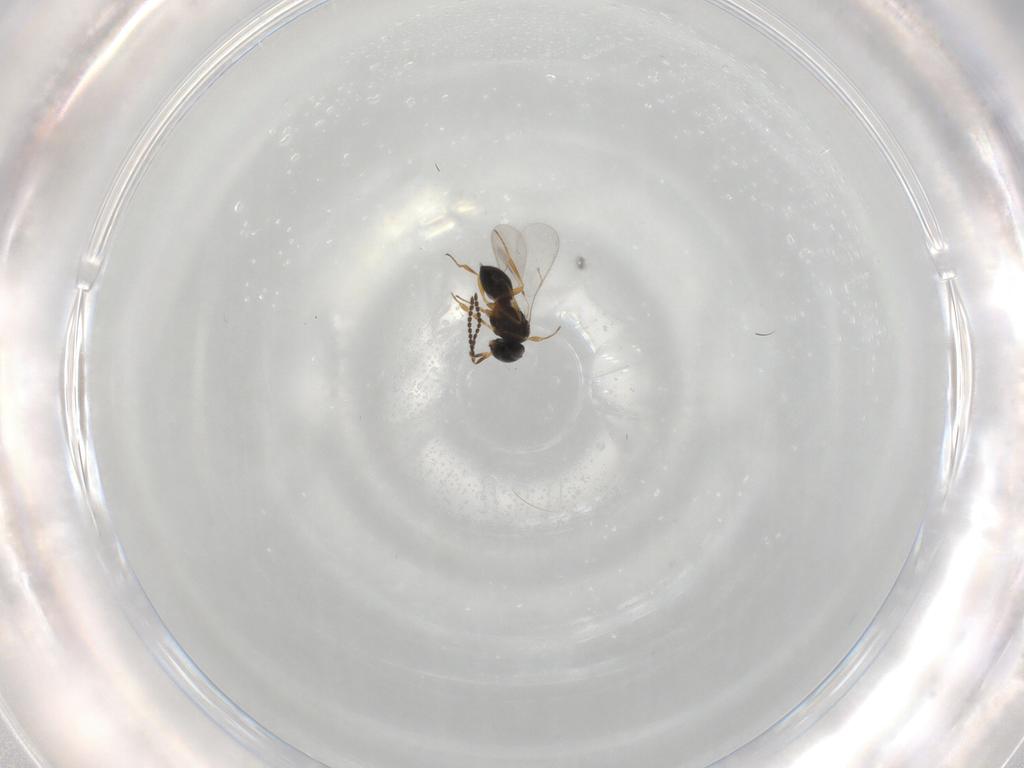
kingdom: Animalia
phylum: Arthropoda
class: Insecta
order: Hymenoptera
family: Scelionidae
